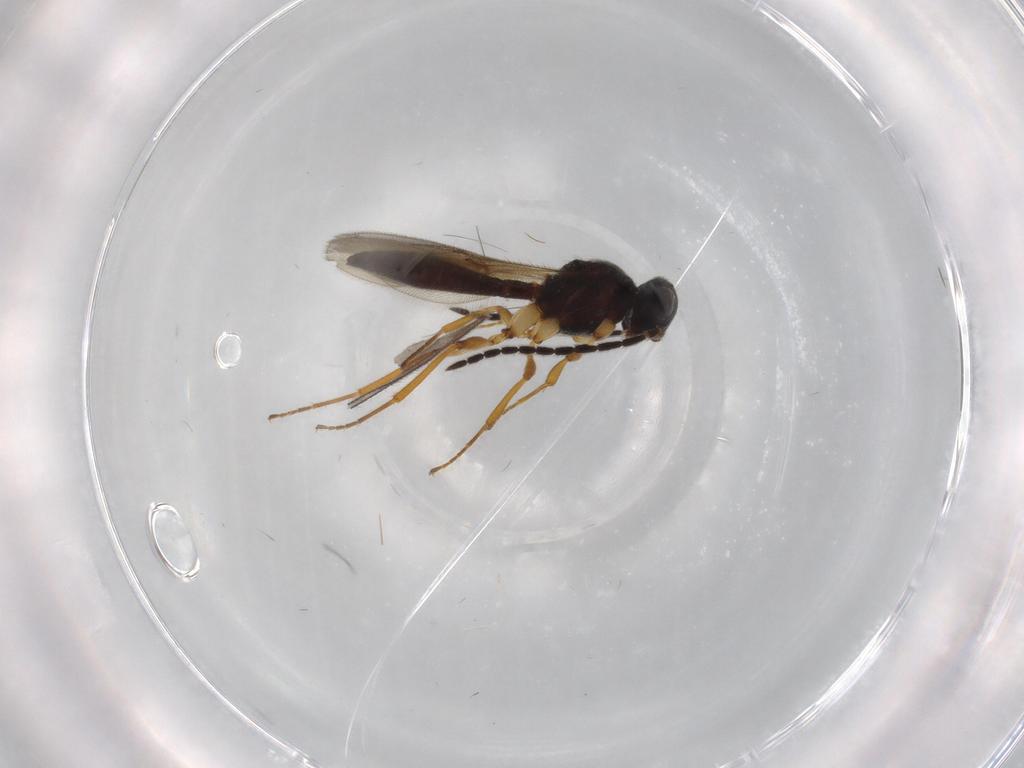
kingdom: Animalia
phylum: Arthropoda
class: Insecta
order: Hymenoptera
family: Scelionidae
